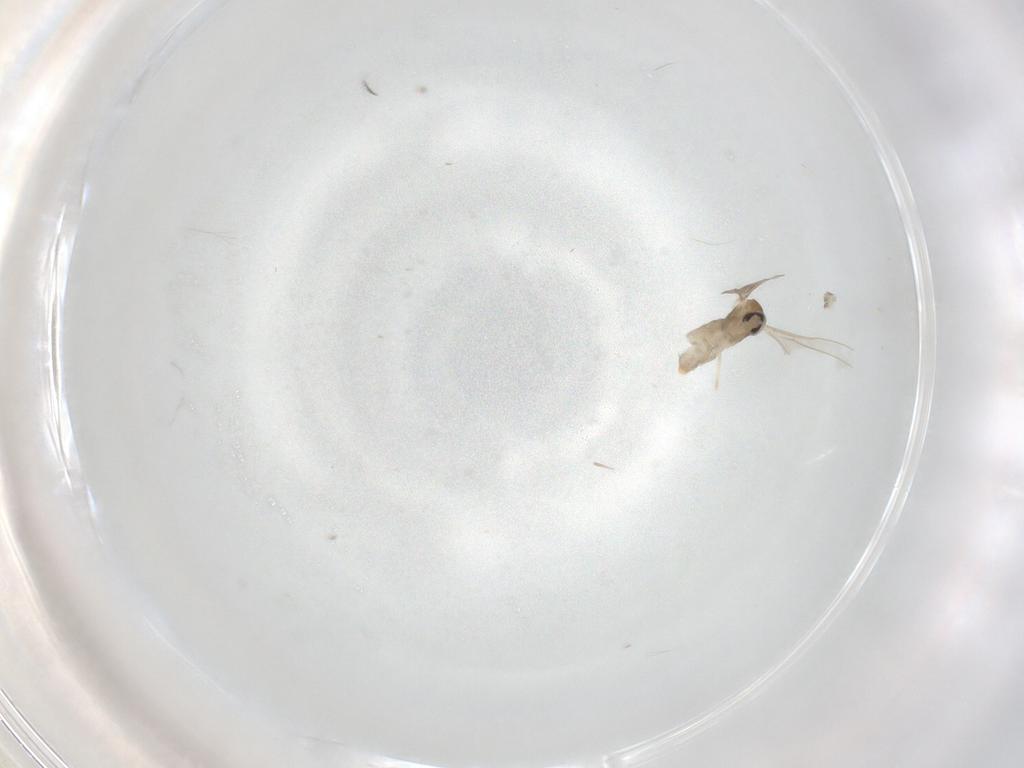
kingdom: Animalia
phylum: Arthropoda
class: Insecta
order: Diptera
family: Cecidomyiidae
